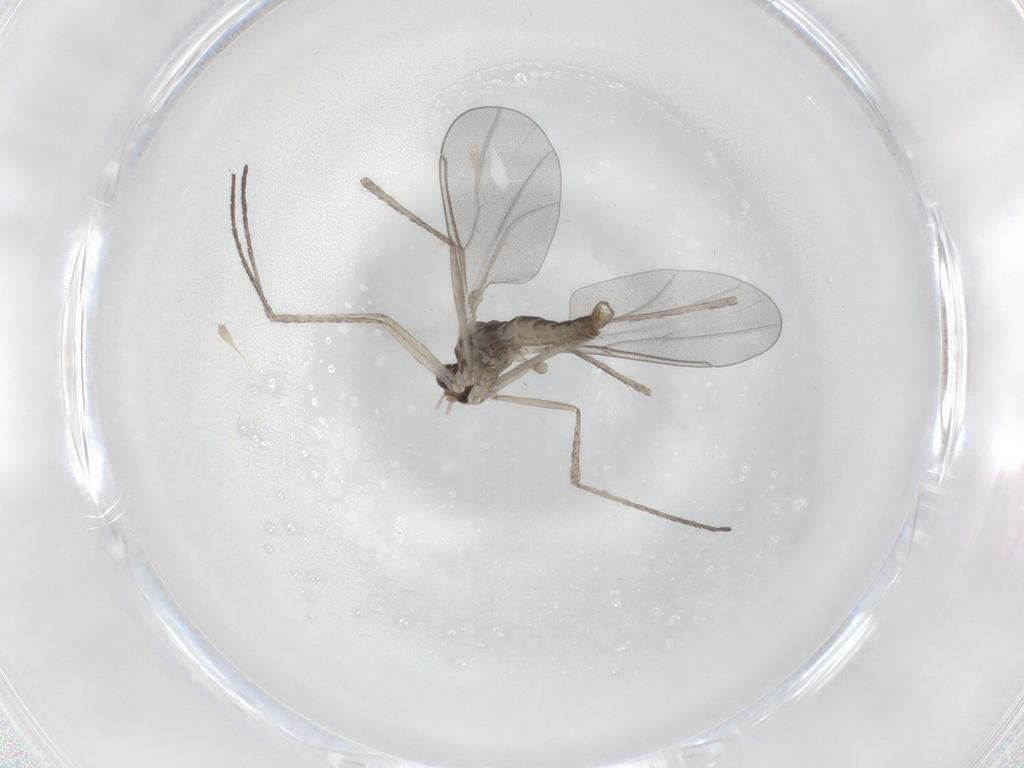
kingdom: Animalia
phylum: Arthropoda
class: Insecta
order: Diptera
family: Cecidomyiidae
